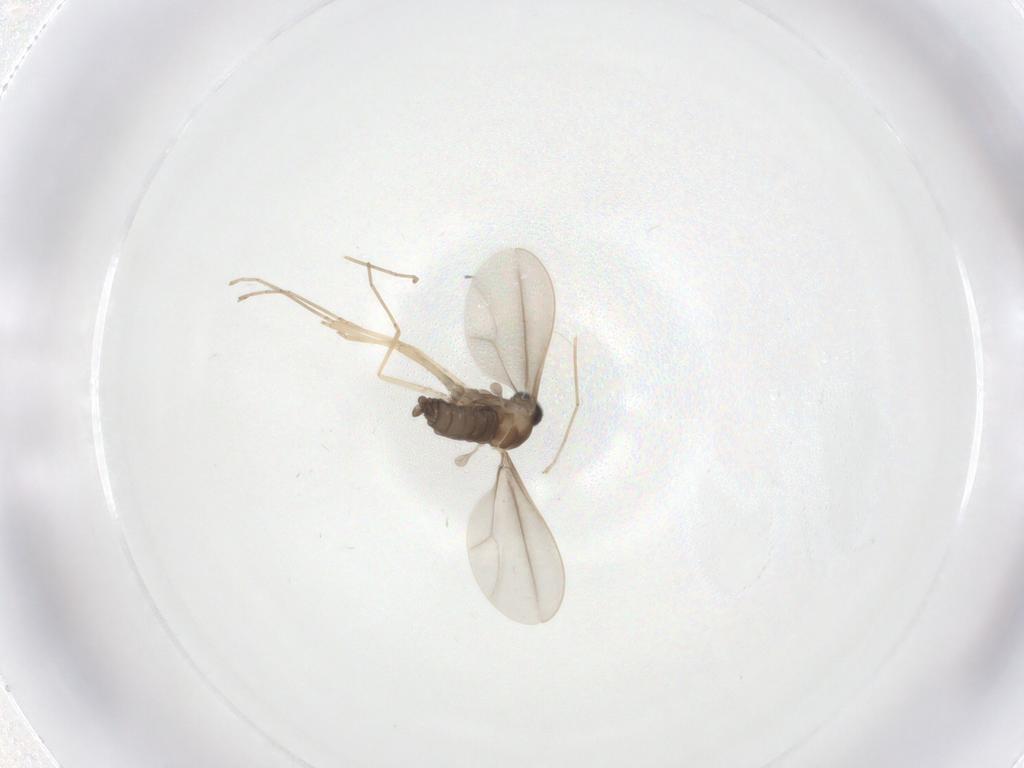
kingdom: Animalia
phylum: Arthropoda
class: Insecta
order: Diptera
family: Cecidomyiidae
